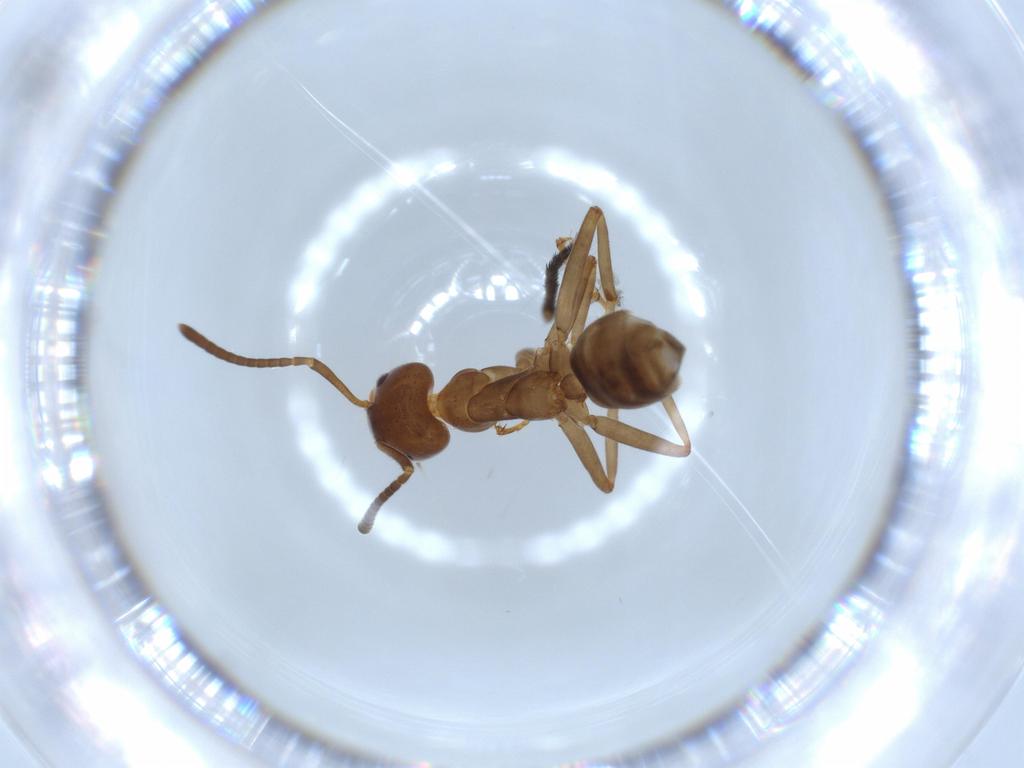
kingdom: Animalia
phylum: Arthropoda
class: Insecta
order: Hymenoptera
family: Formicidae
